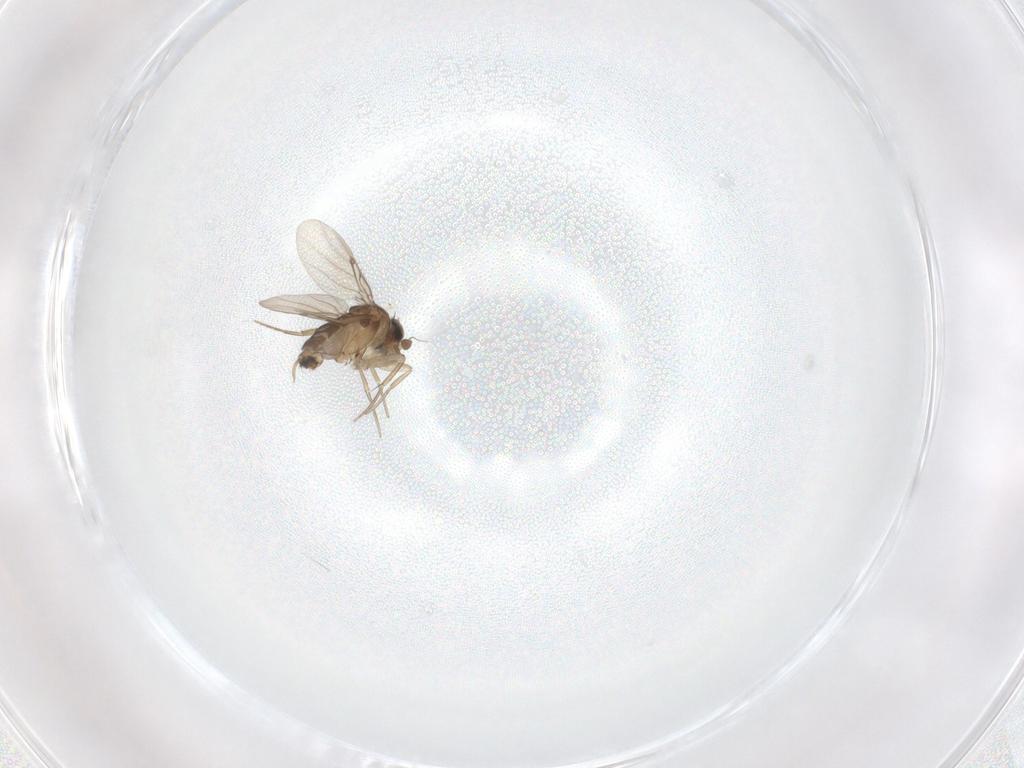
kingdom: Animalia
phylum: Arthropoda
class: Insecta
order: Diptera
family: Phoridae
